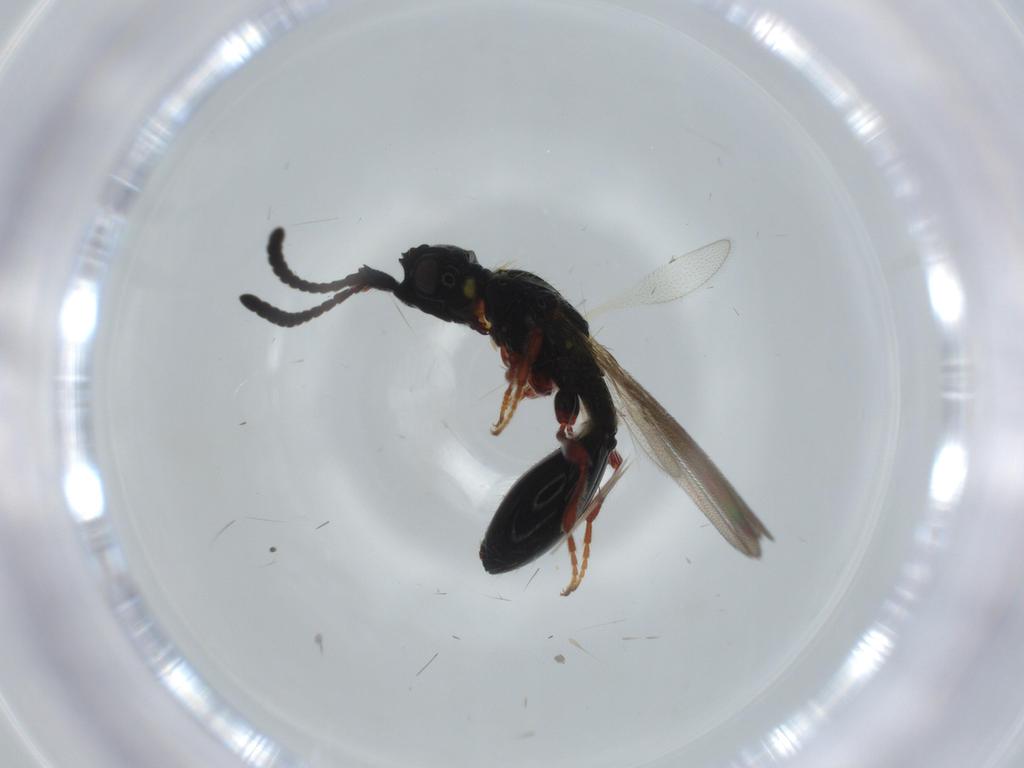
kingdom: Animalia
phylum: Arthropoda
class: Insecta
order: Hymenoptera
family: Diapriidae
